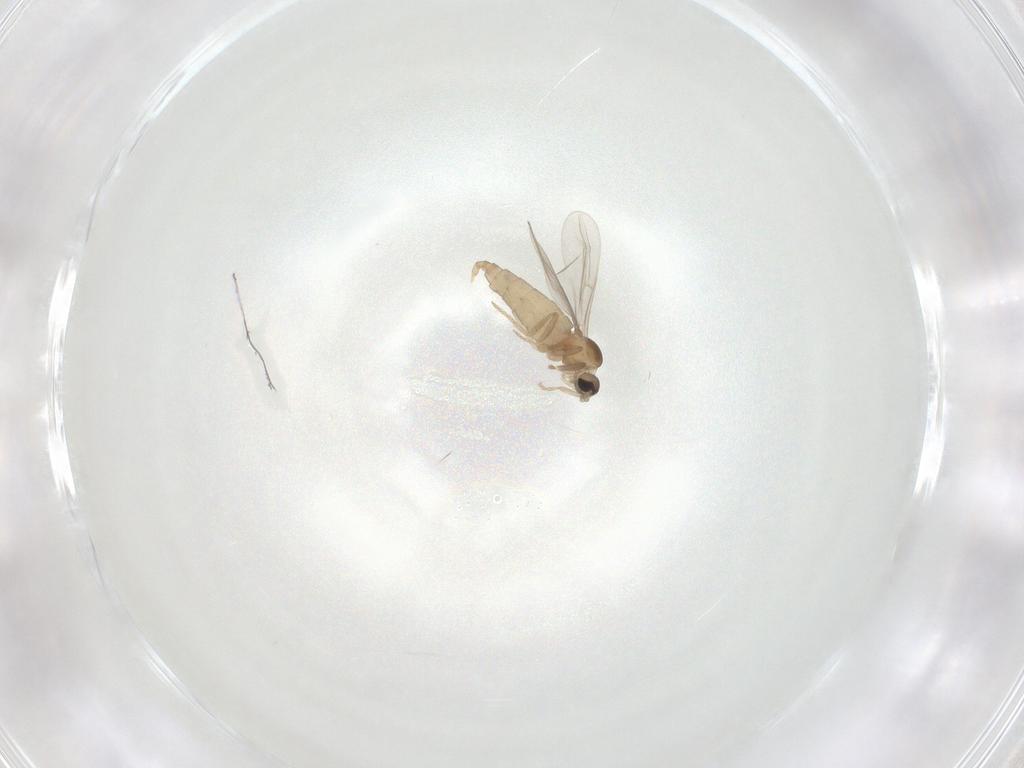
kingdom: Animalia
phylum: Arthropoda
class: Insecta
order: Diptera
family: Cecidomyiidae
